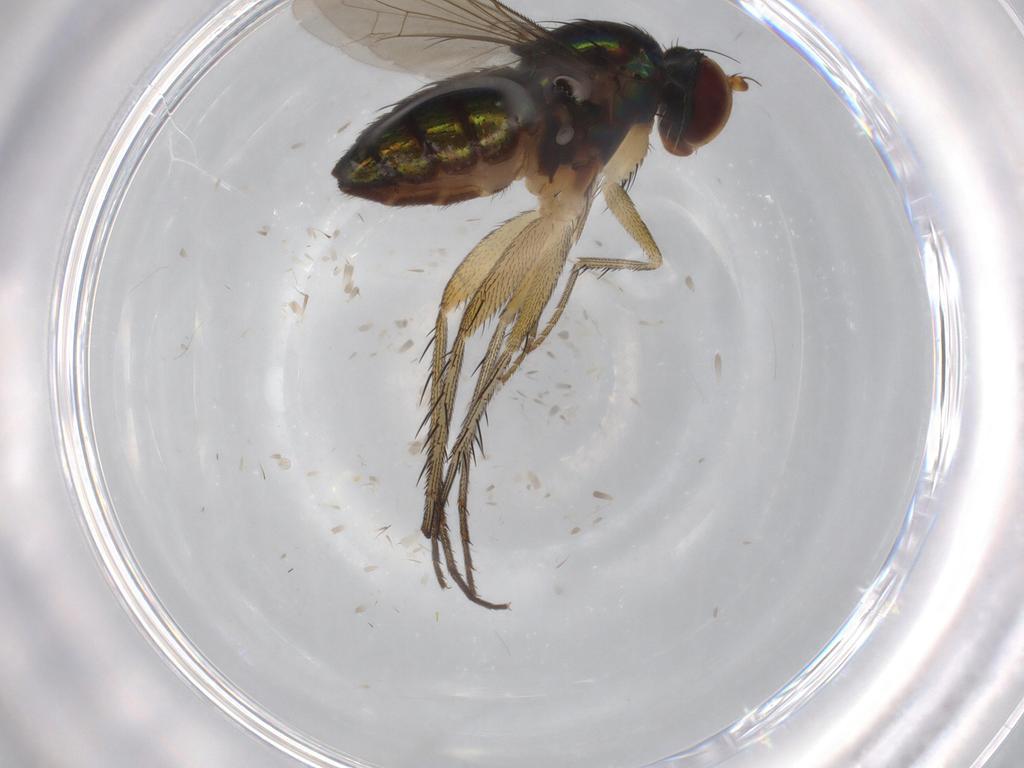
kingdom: Animalia
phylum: Arthropoda
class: Insecta
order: Diptera
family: Dolichopodidae
